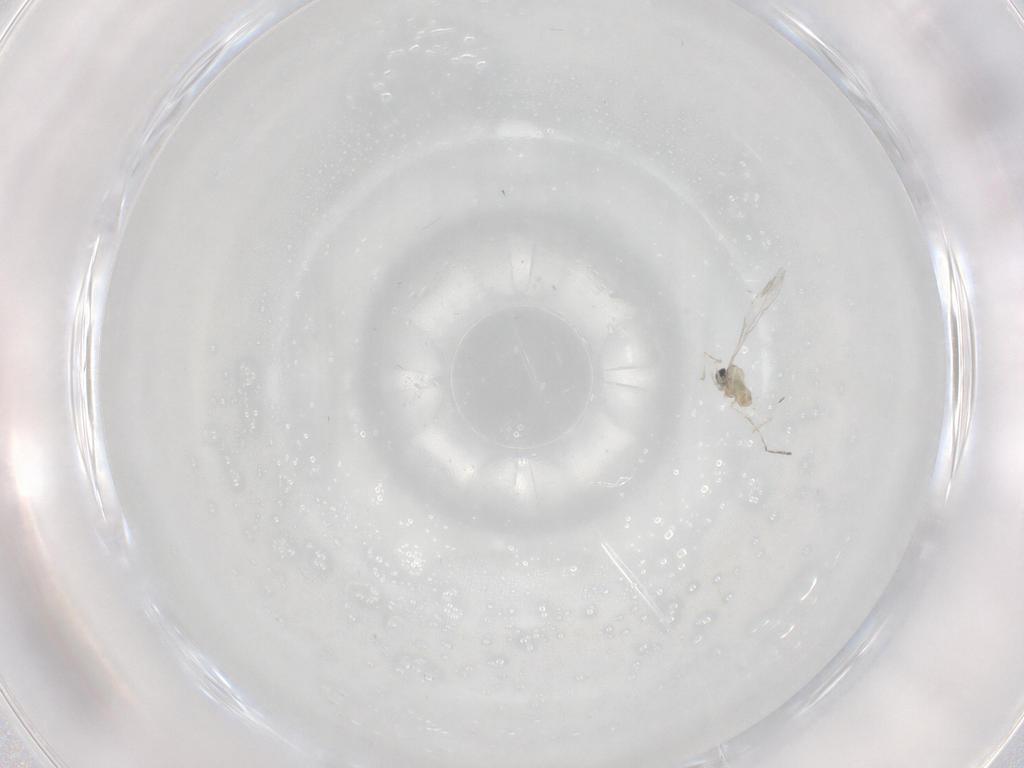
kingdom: Animalia
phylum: Arthropoda
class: Insecta
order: Diptera
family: Cecidomyiidae
